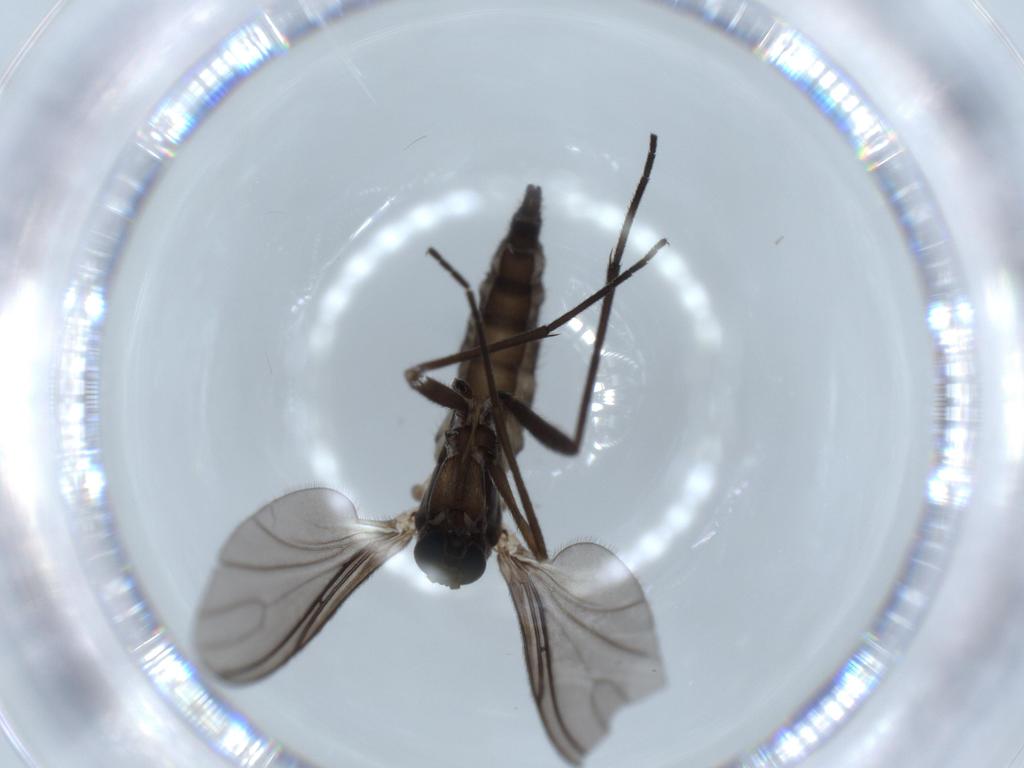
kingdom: Animalia
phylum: Arthropoda
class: Insecta
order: Diptera
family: Sciaridae
